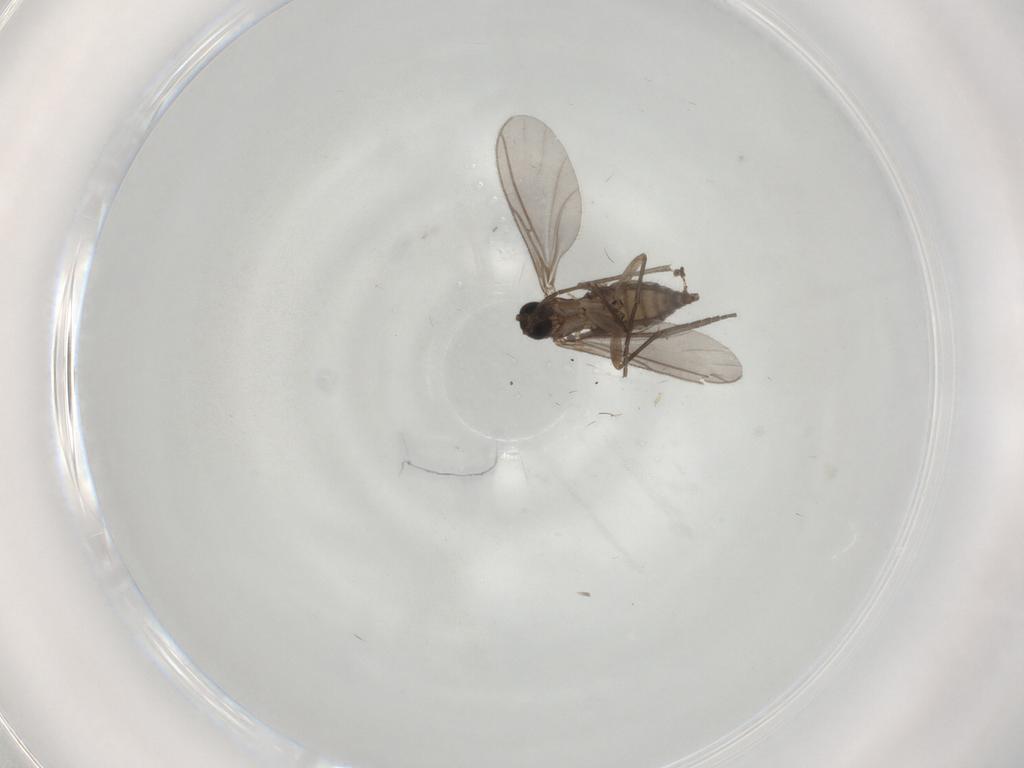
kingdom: Animalia
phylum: Arthropoda
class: Insecta
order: Diptera
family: Sciaridae
